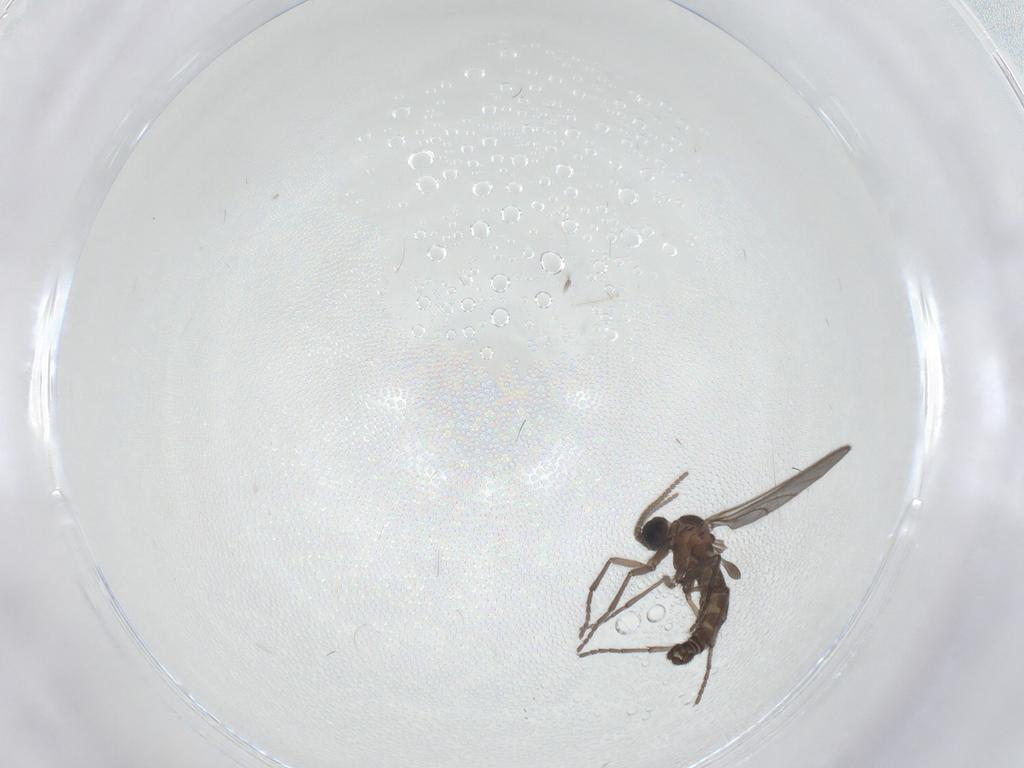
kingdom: Animalia
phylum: Arthropoda
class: Insecta
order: Diptera
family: Sciaridae
